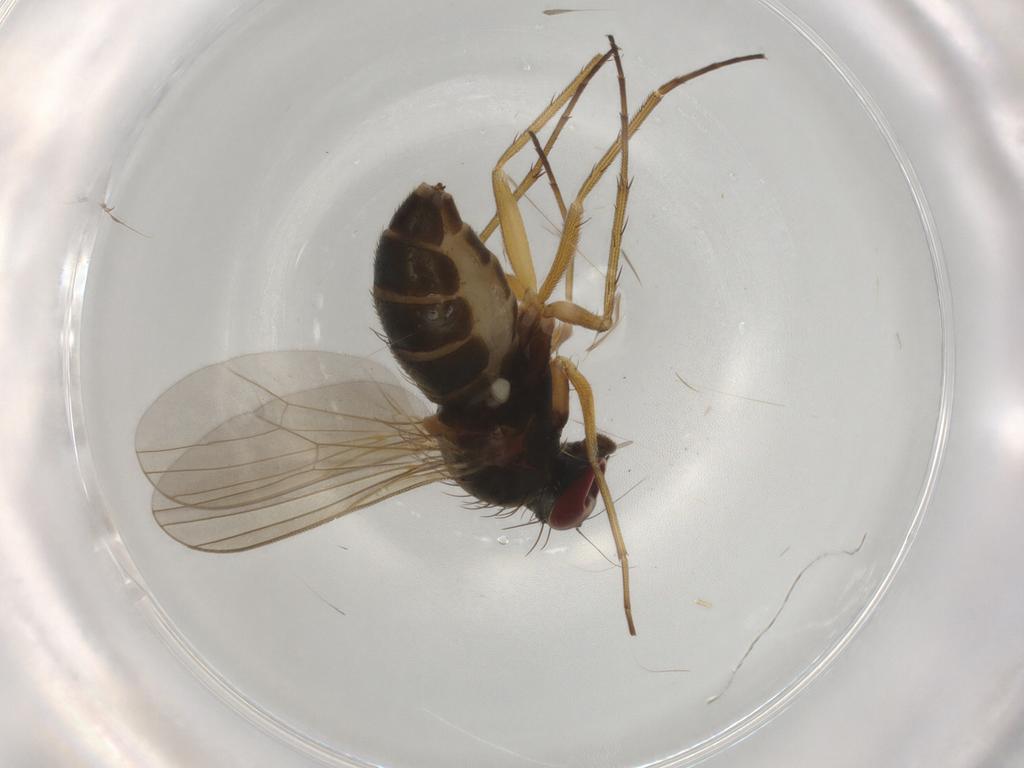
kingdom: Animalia
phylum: Arthropoda
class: Insecta
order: Diptera
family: Dolichopodidae
